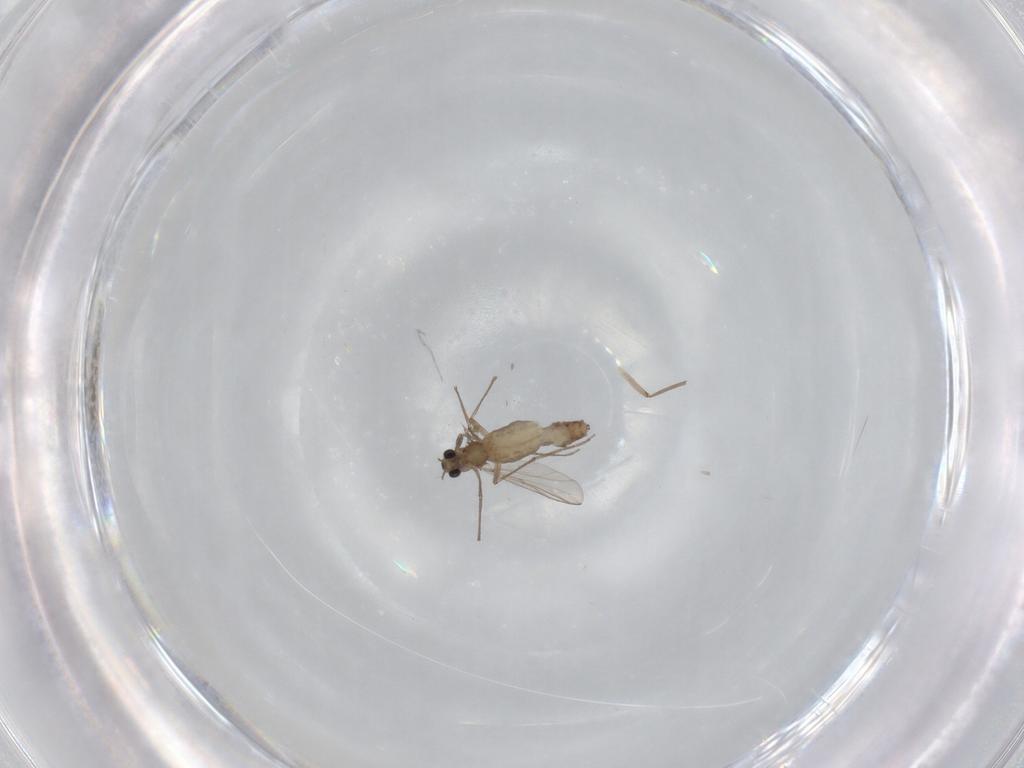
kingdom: Animalia
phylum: Arthropoda
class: Insecta
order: Diptera
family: Chironomidae
